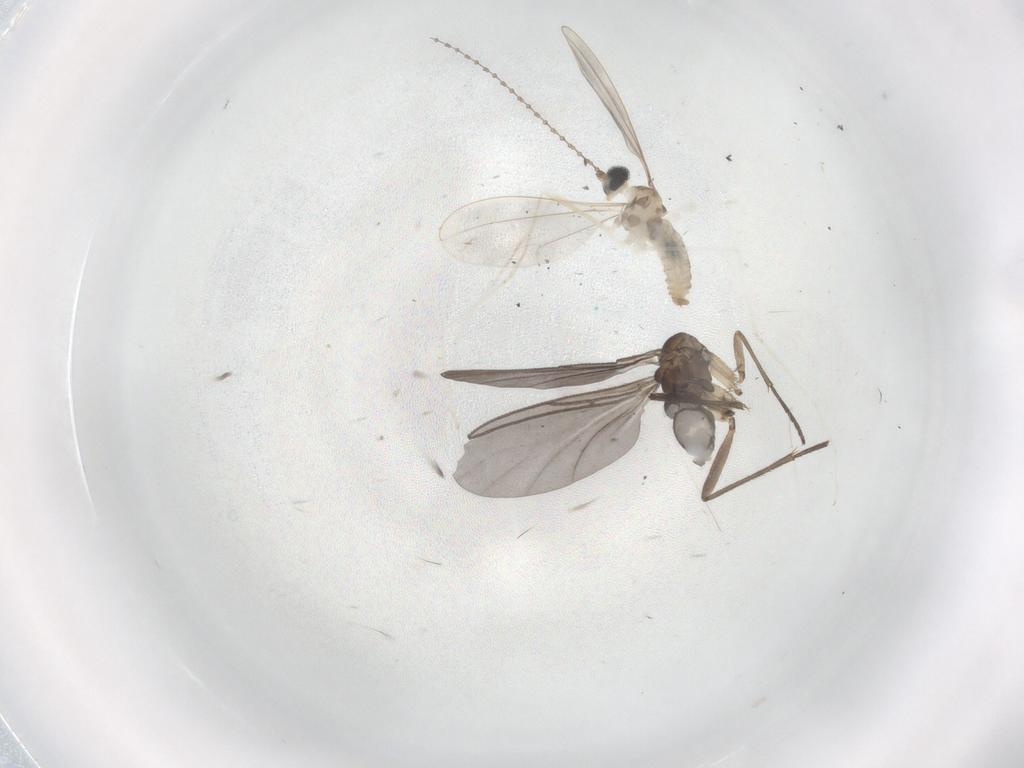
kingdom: Animalia
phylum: Arthropoda
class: Insecta
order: Diptera
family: Sciaridae
